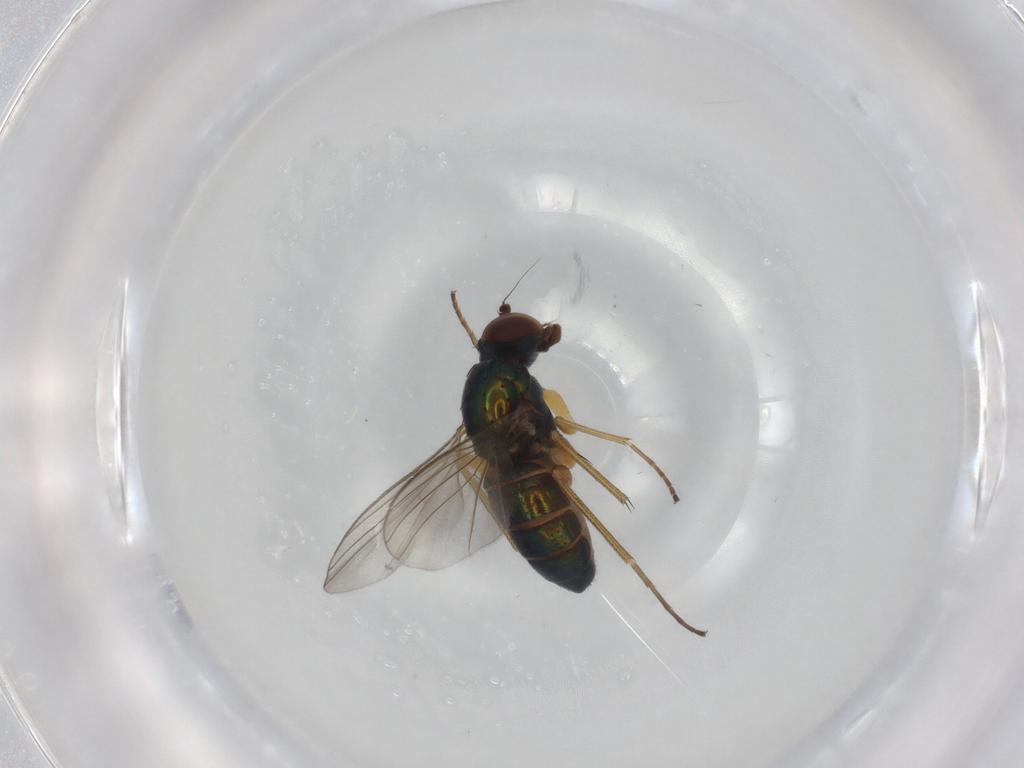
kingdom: Animalia
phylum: Arthropoda
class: Insecta
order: Diptera
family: Dolichopodidae
